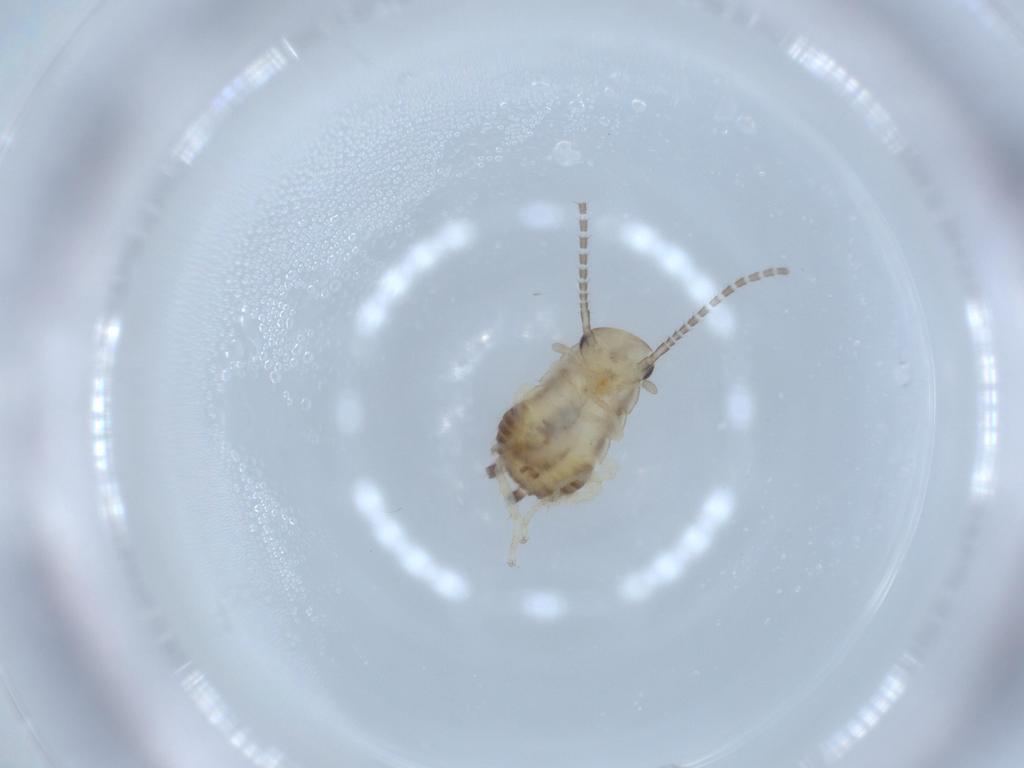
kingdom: Animalia
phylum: Arthropoda
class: Insecta
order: Blattodea
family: Ectobiidae
